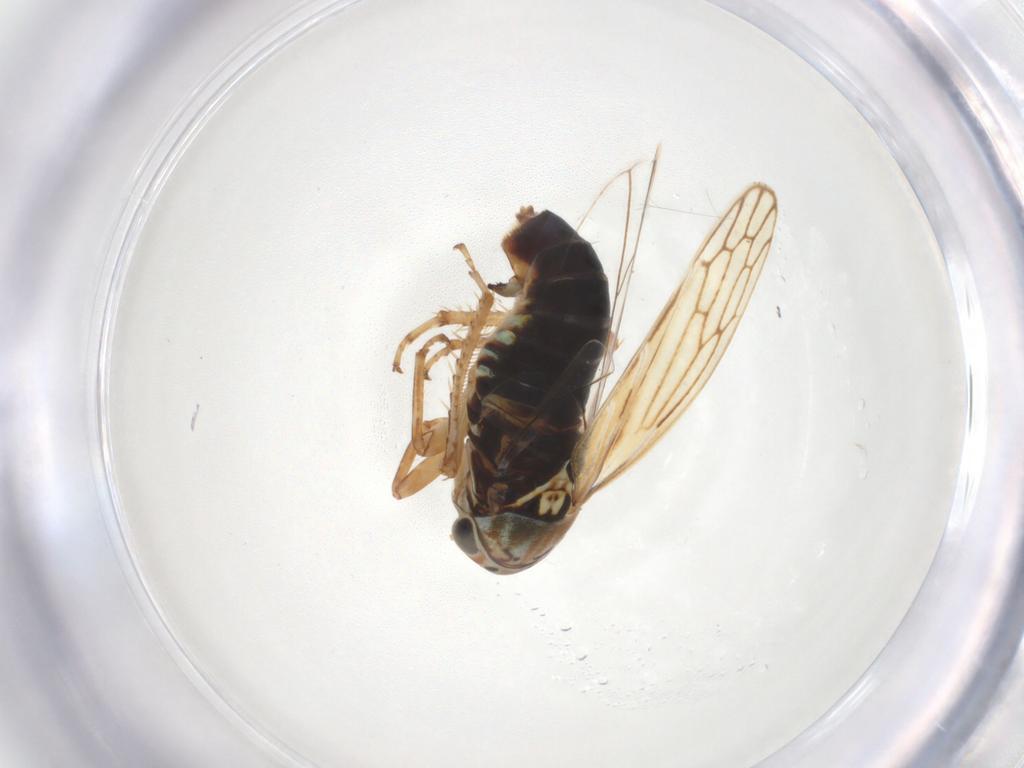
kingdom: Animalia
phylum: Arthropoda
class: Insecta
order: Hemiptera
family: Cicadellidae
